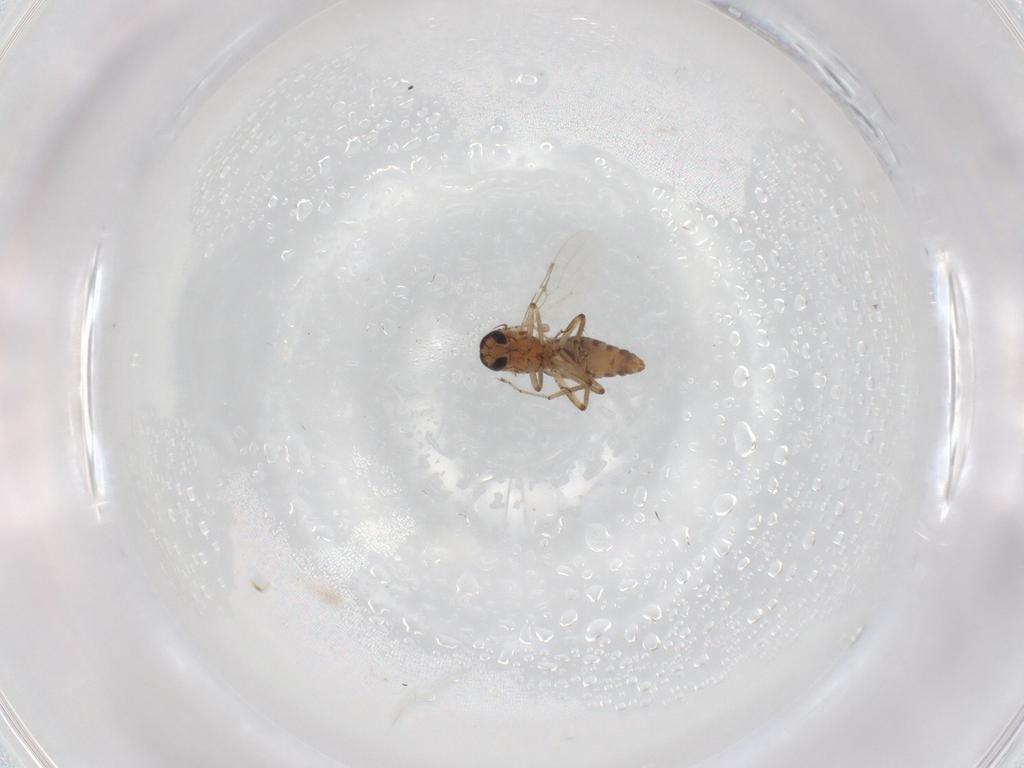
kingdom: Animalia
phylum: Arthropoda
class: Insecta
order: Diptera
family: Ceratopogonidae
